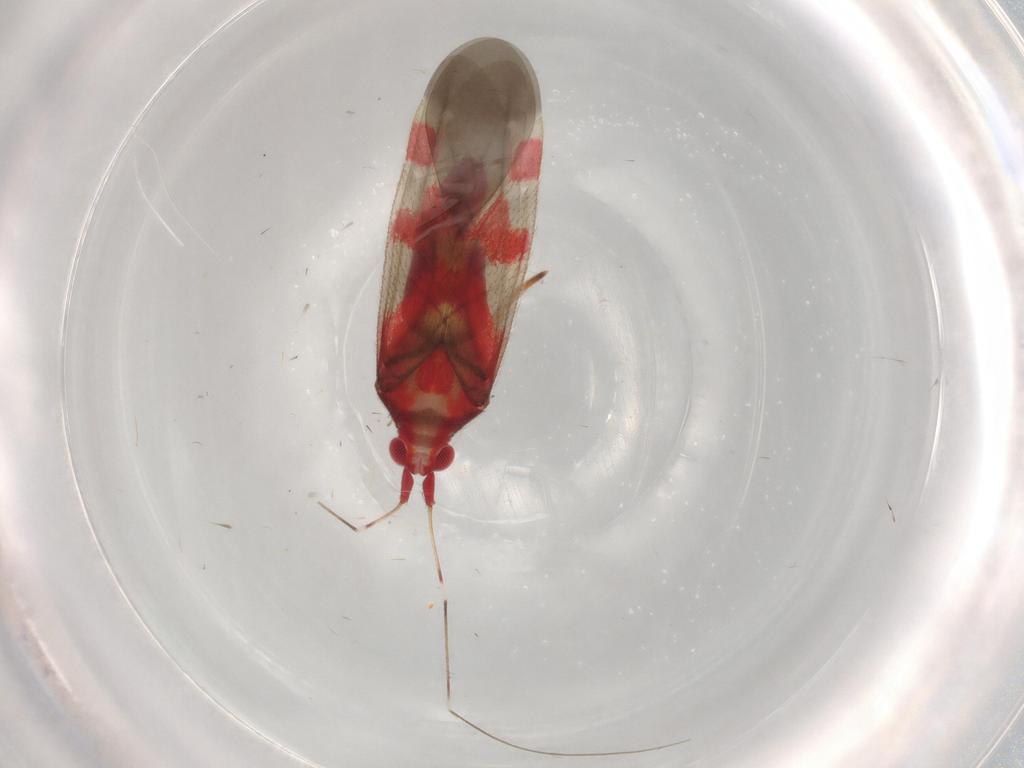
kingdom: Animalia
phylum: Arthropoda
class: Insecta
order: Hemiptera
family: Miridae
